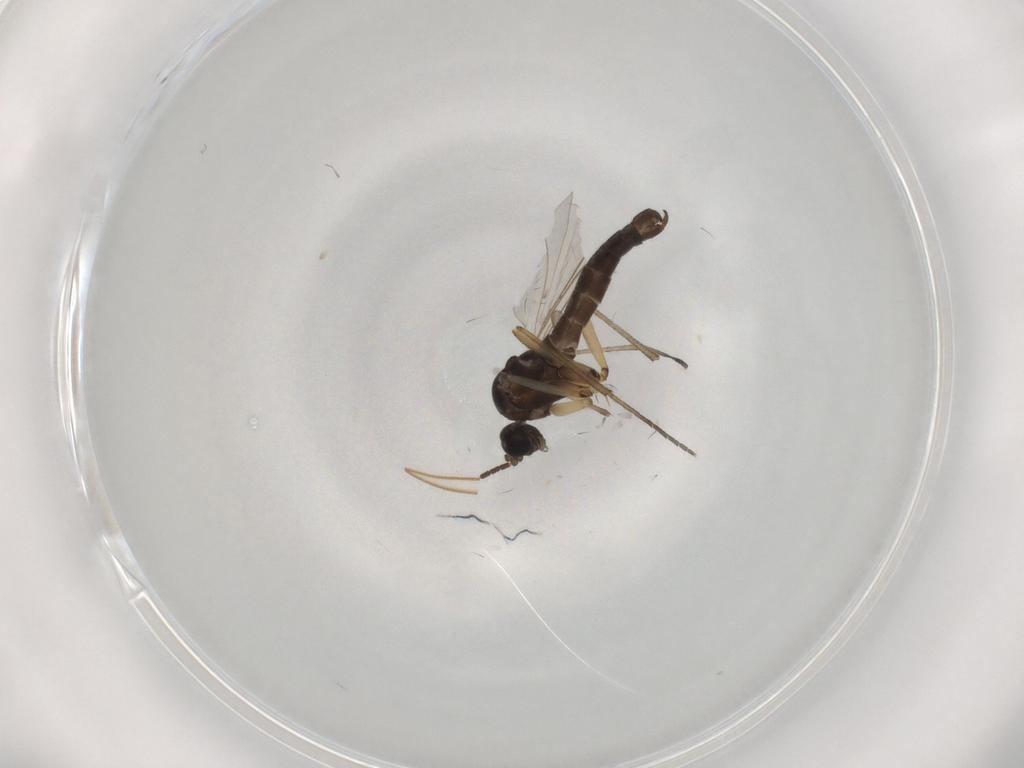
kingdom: Animalia
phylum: Arthropoda
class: Insecta
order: Diptera
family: Sciaridae
